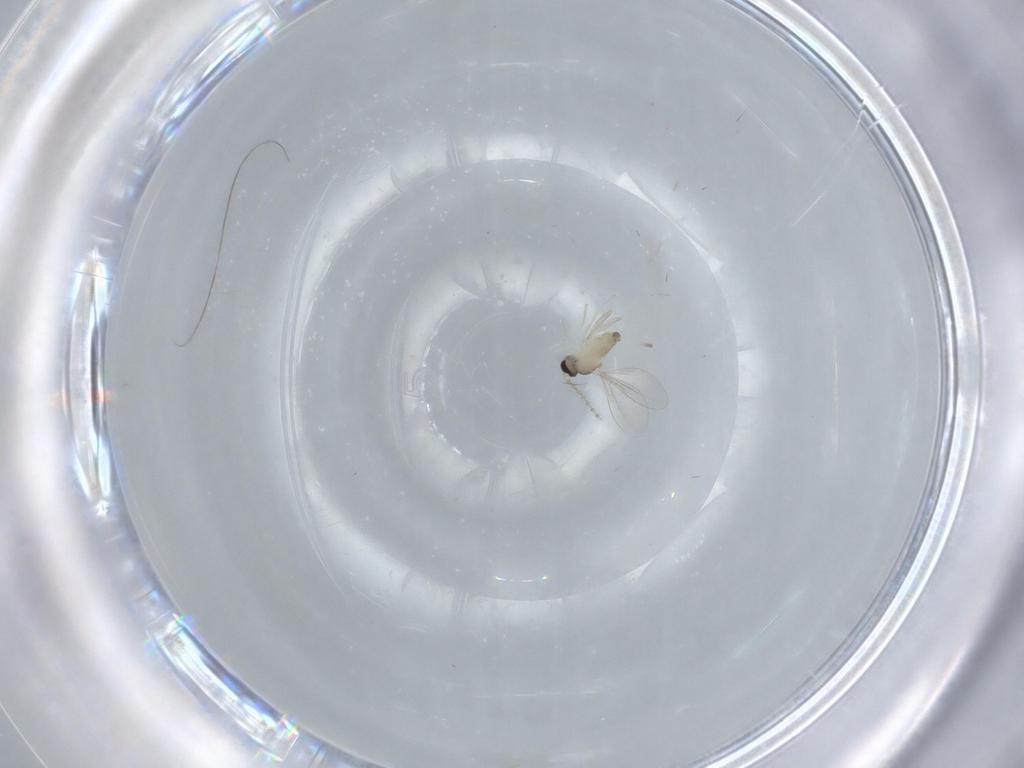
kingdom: Animalia
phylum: Arthropoda
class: Insecta
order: Diptera
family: Cecidomyiidae
